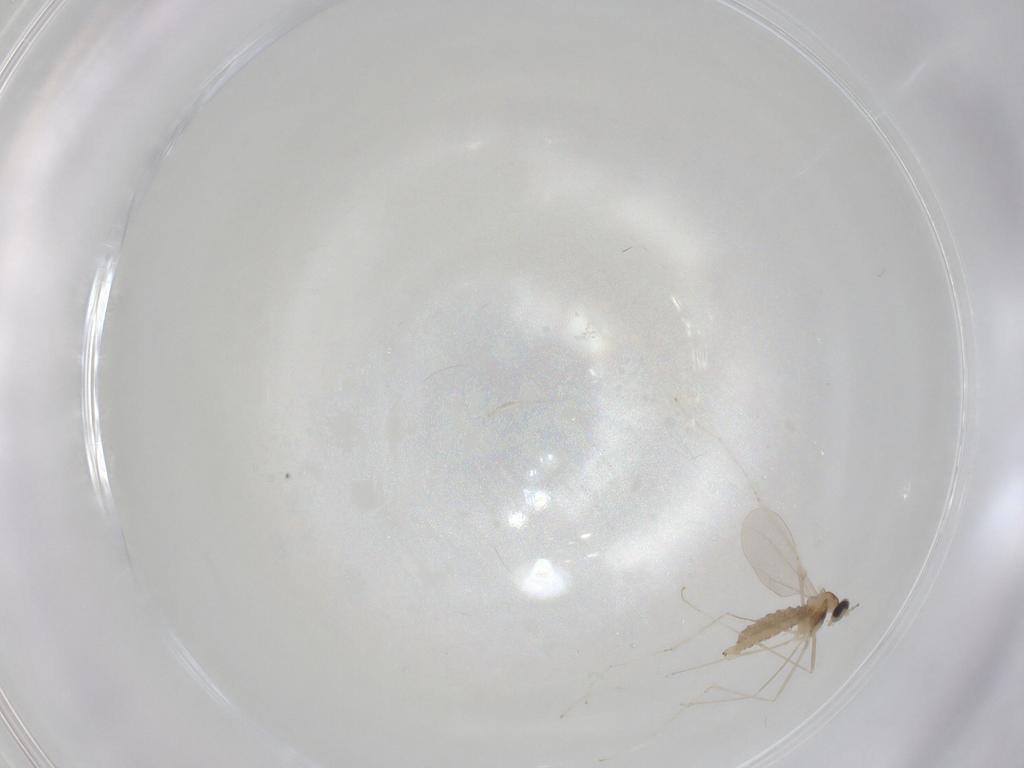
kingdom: Animalia
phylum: Arthropoda
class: Insecta
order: Diptera
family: Cecidomyiidae
